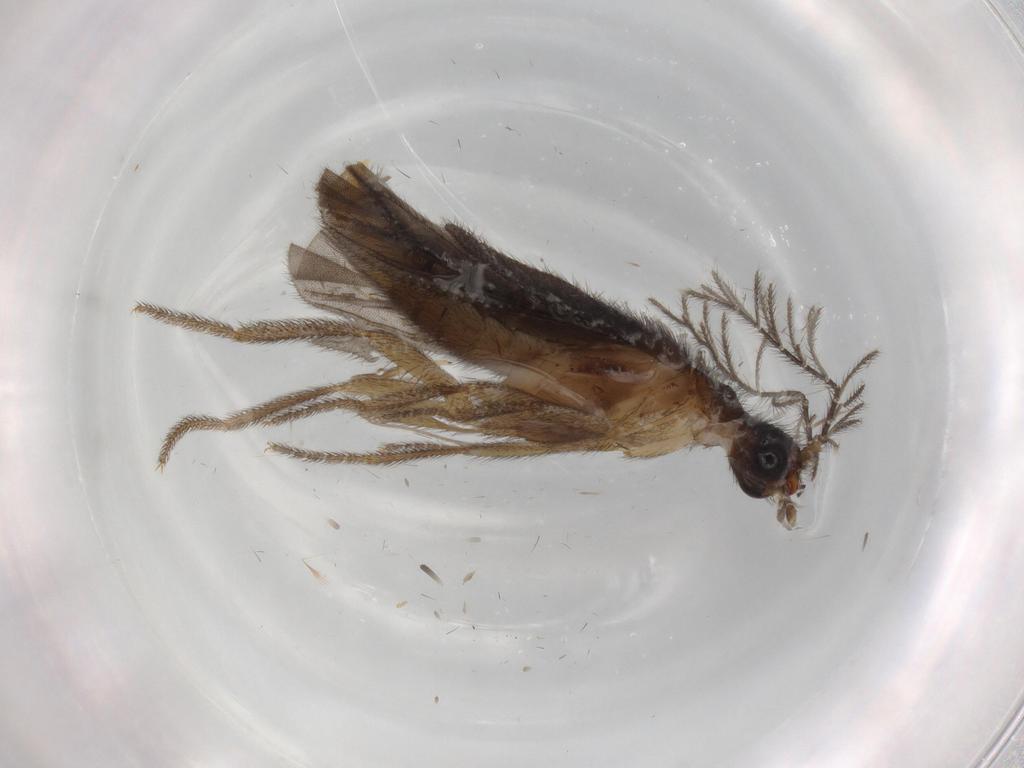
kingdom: Animalia
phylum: Arthropoda
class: Insecta
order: Coleoptera
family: Phengodidae
